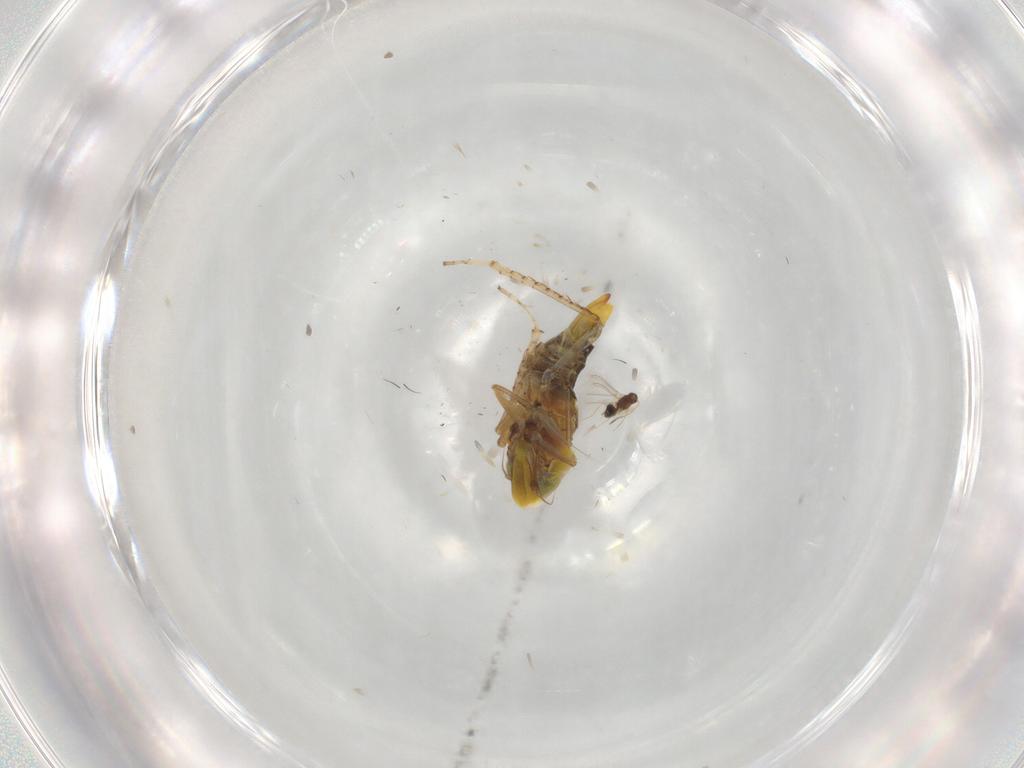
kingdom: Animalia
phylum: Arthropoda
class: Insecta
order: Hemiptera
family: Cicadellidae
